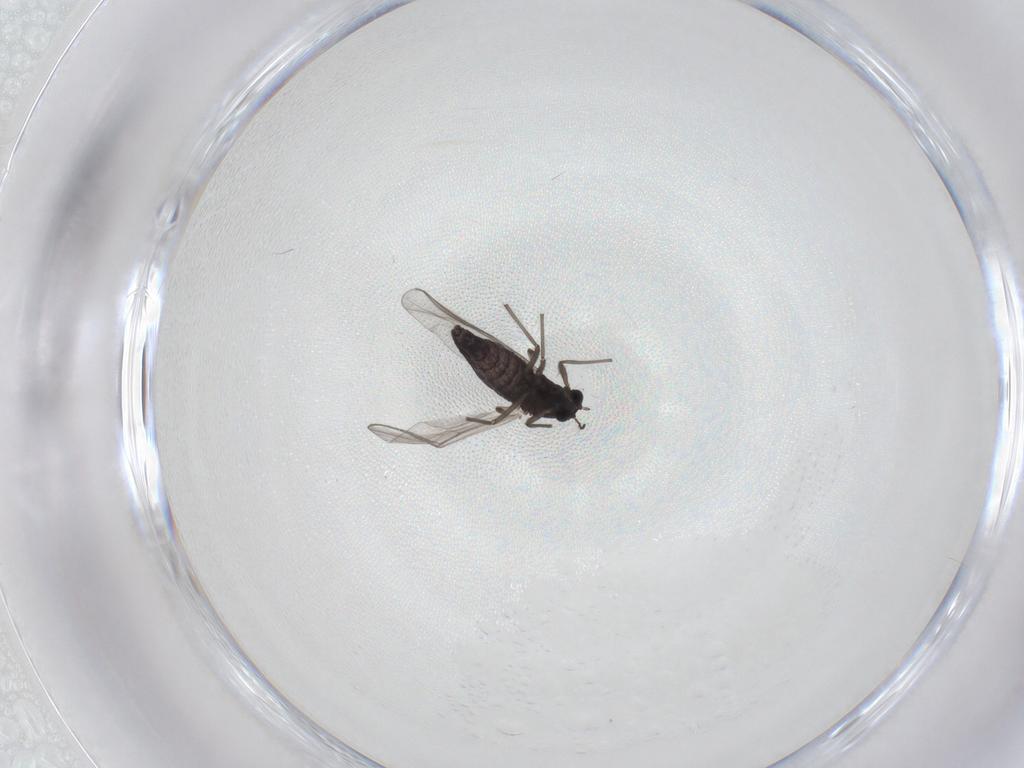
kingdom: Animalia
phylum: Arthropoda
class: Insecta
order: Diptera
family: Chironomidae
